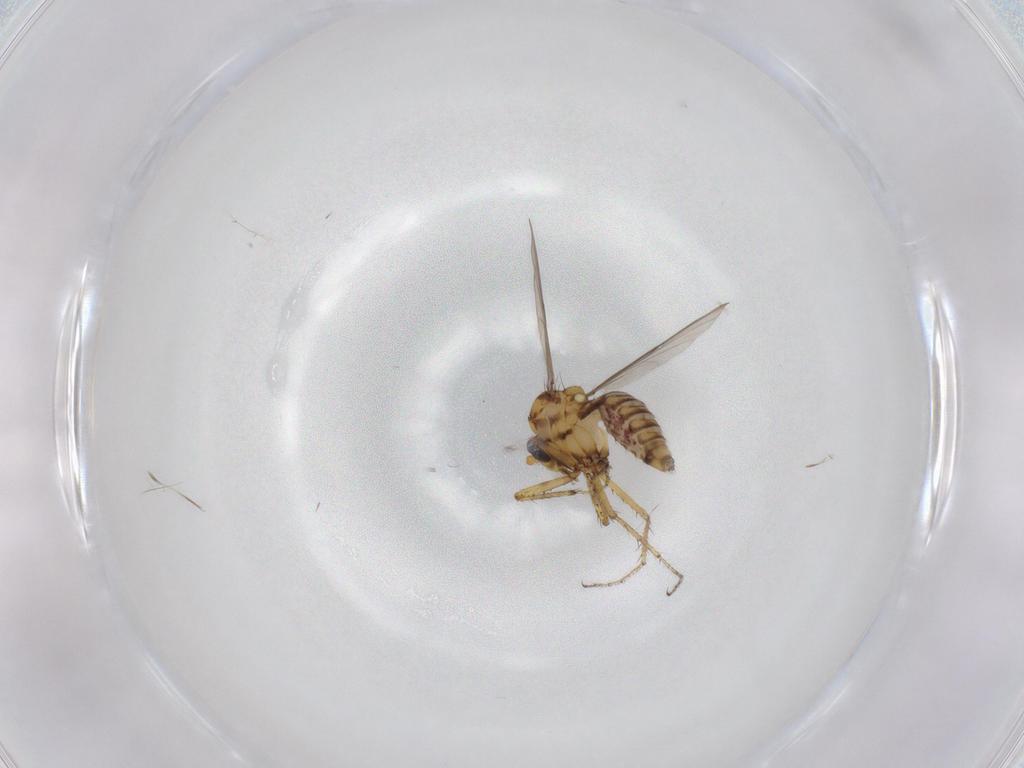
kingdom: Animalia
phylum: Arthropoda
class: Insecta
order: Diptera
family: Ceratopogonidae
